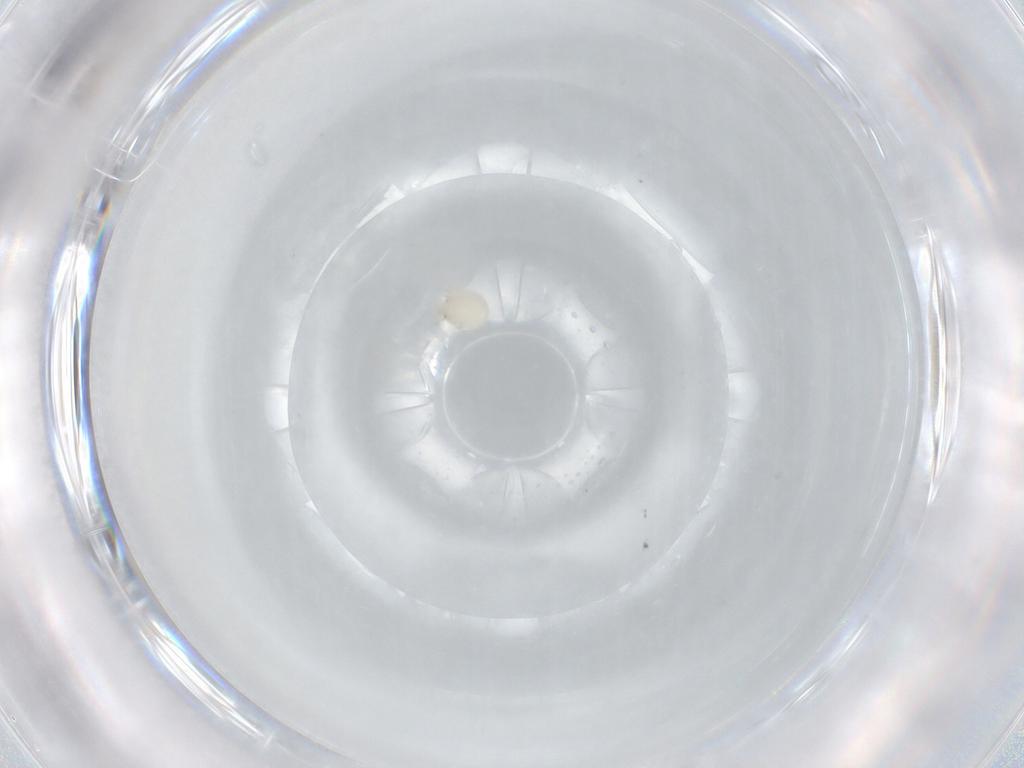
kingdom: Animalia
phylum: Arthropoda
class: Arachnida
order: Trombidiformes
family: Arrenuridae
